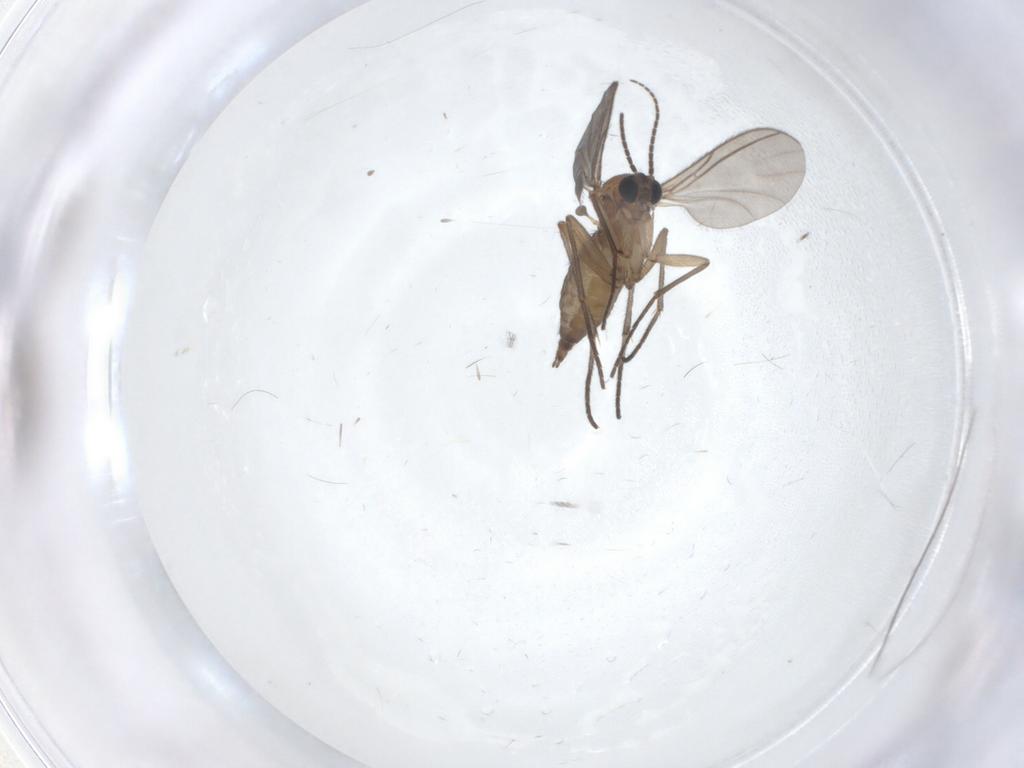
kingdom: Animalia
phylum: Arthropoda
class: Insecta
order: Diptera
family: Sciaridae
